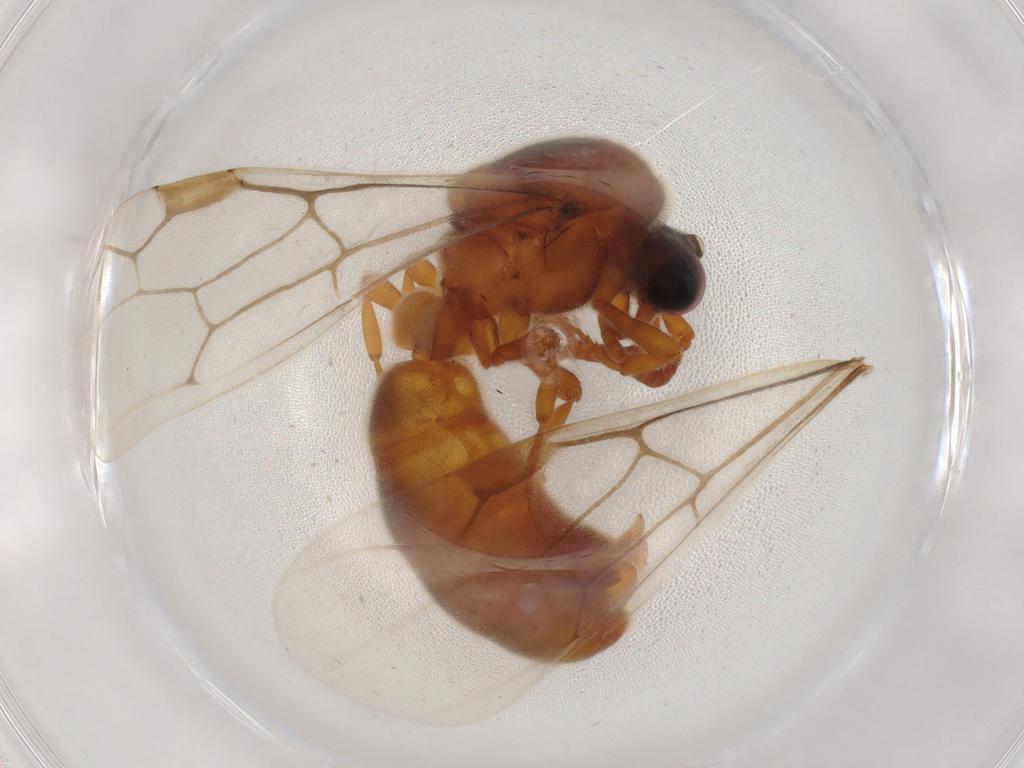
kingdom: Animalia
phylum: Arthropoda
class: Insecta
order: Hymenoptera
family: Formicidae
